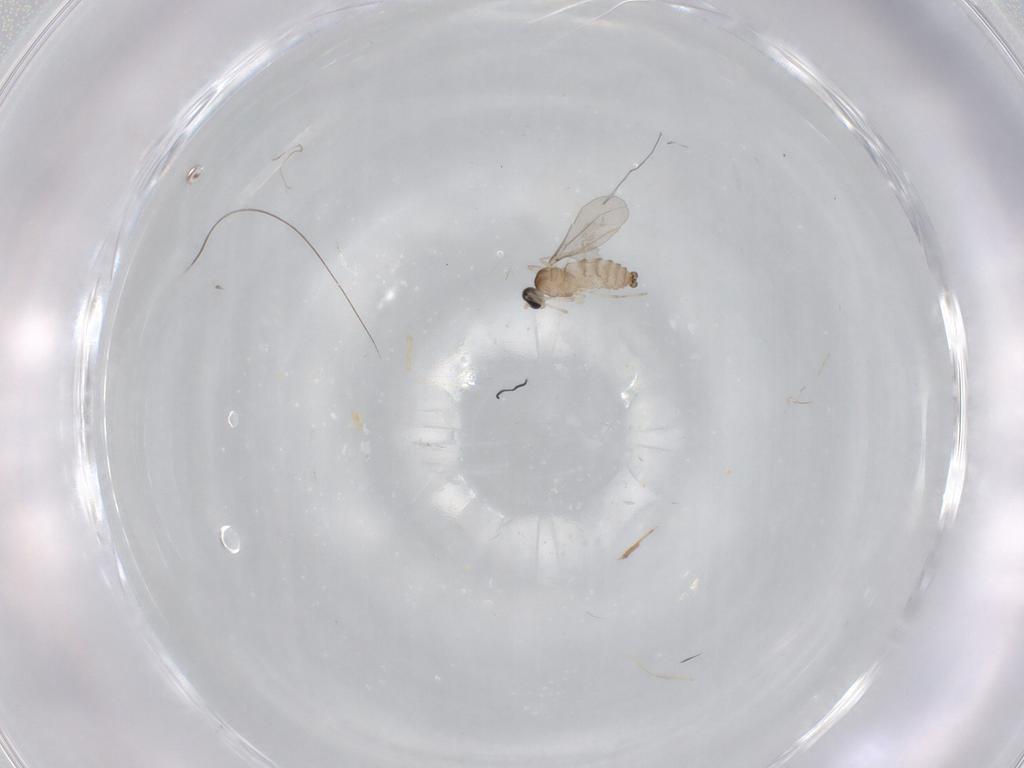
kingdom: Animalia
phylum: Arthropoda
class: Insecta
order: Diptera
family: Cecidomyiidae
